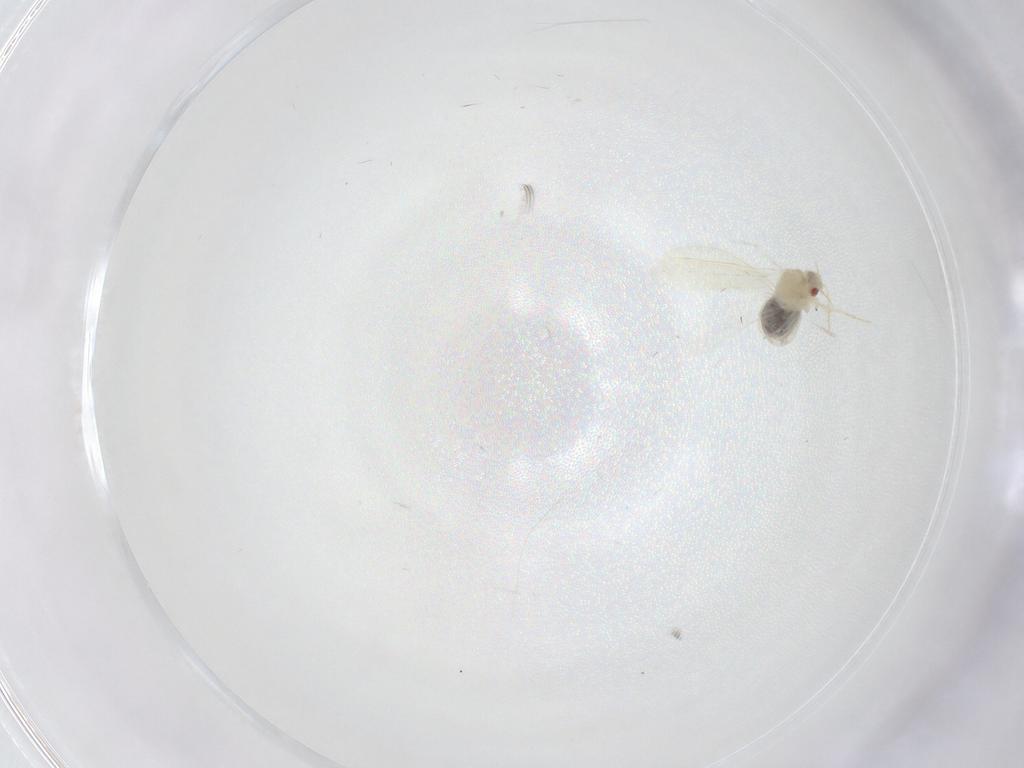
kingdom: Animalia
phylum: Arthropoda
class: Insecta
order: Hemiptera
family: Aleyrodidae
